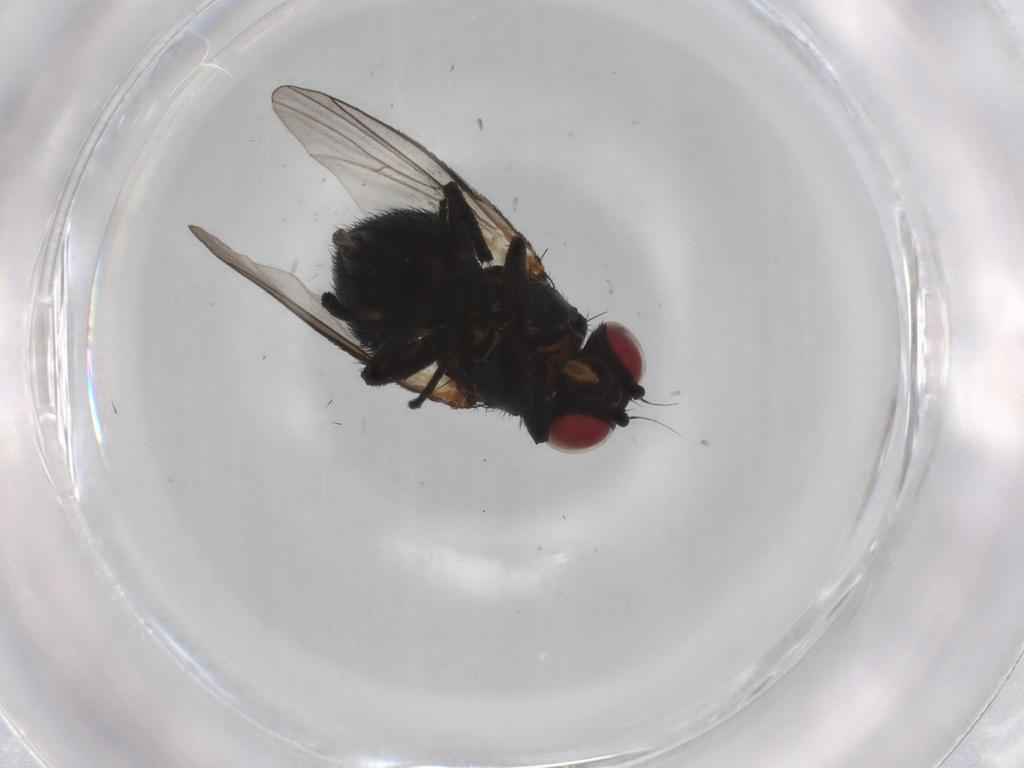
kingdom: Animalia
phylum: Arthropoda
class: Insecta
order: Diptera
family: Agromyzidae
